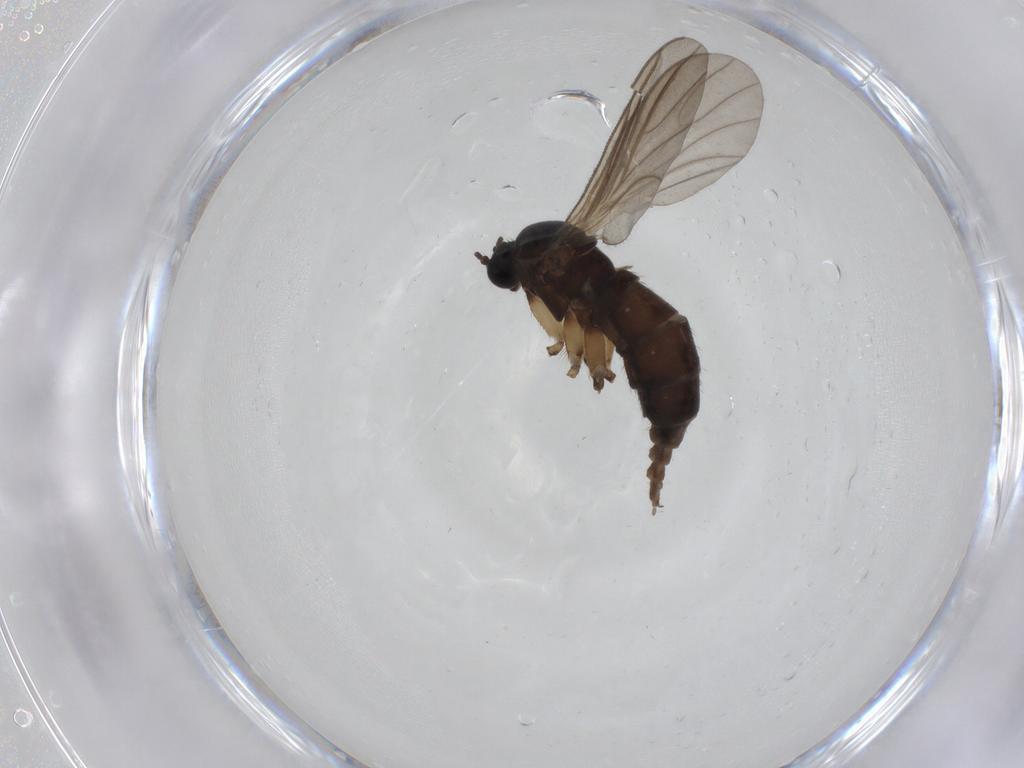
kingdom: Animalia
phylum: Arthropoda
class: Insecta
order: Diptera
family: Sciaridae
